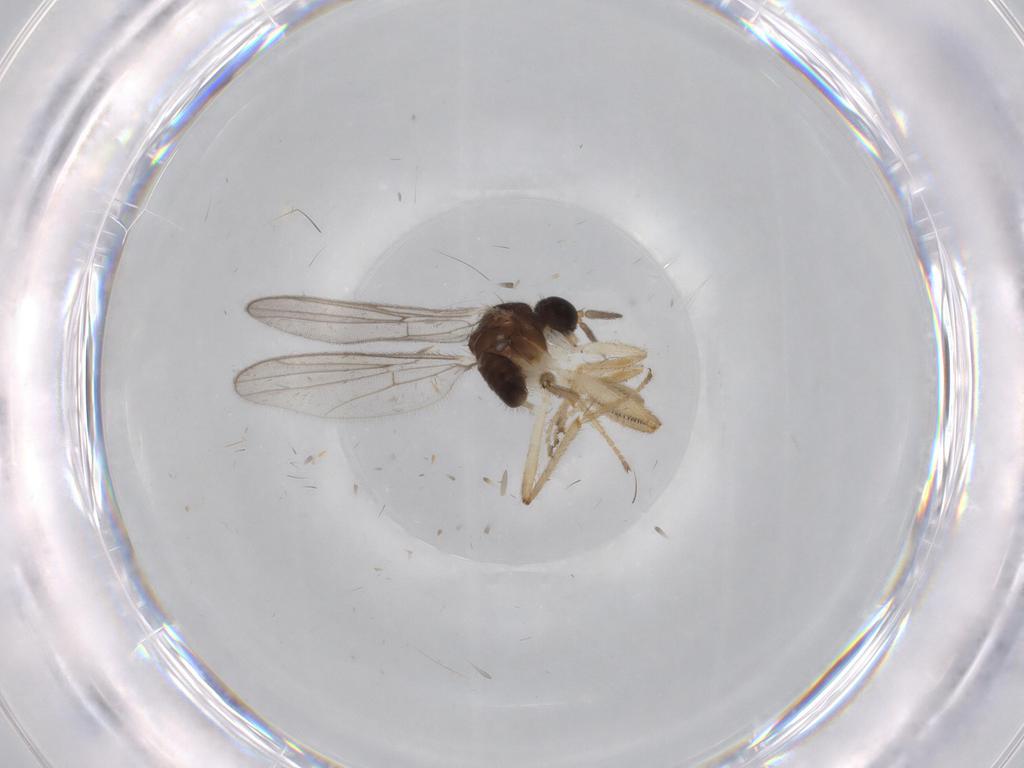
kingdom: Animalia
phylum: Arthropoda
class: Insecta
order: Diptera
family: Hybotidae
